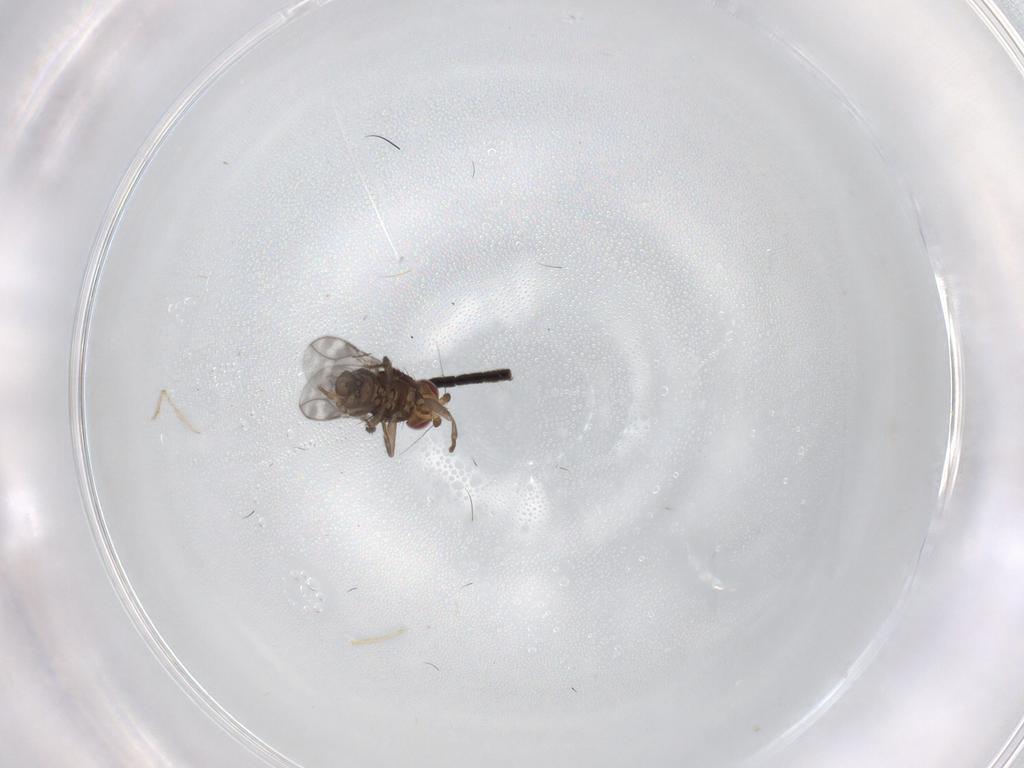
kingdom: Animalia
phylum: Arthropoda
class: Insecta
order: Diptera
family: Sphaeroceridae
